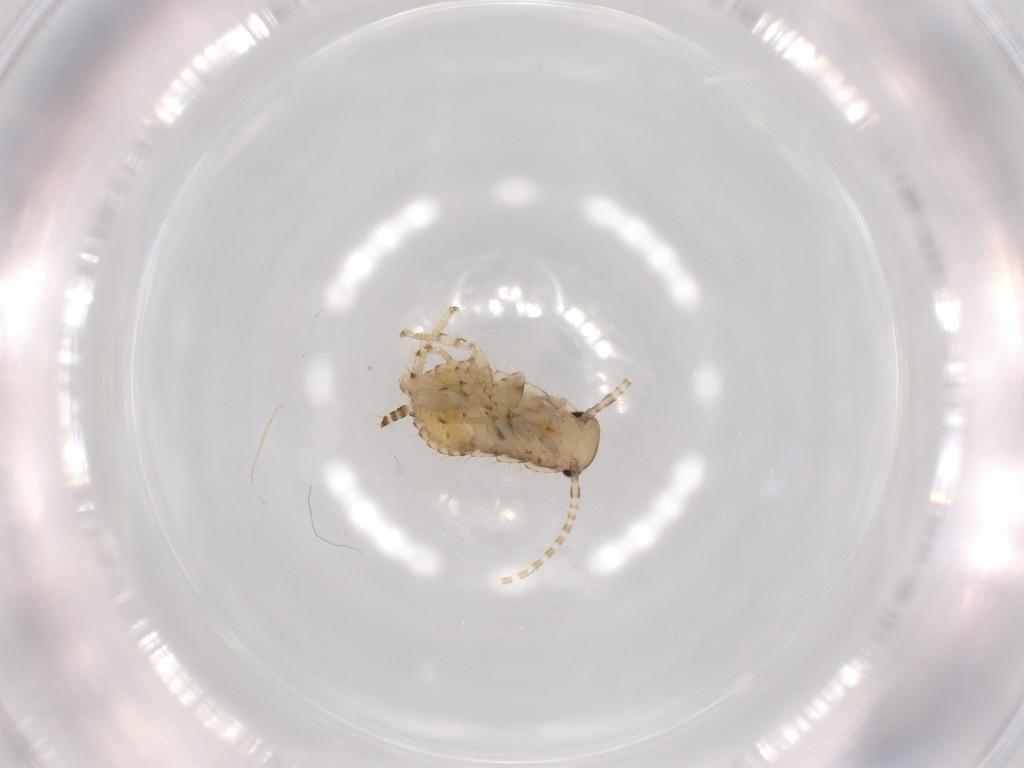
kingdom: Animalia
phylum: Arthropoda
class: Insecta
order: Blattodea
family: Ectobiidae
